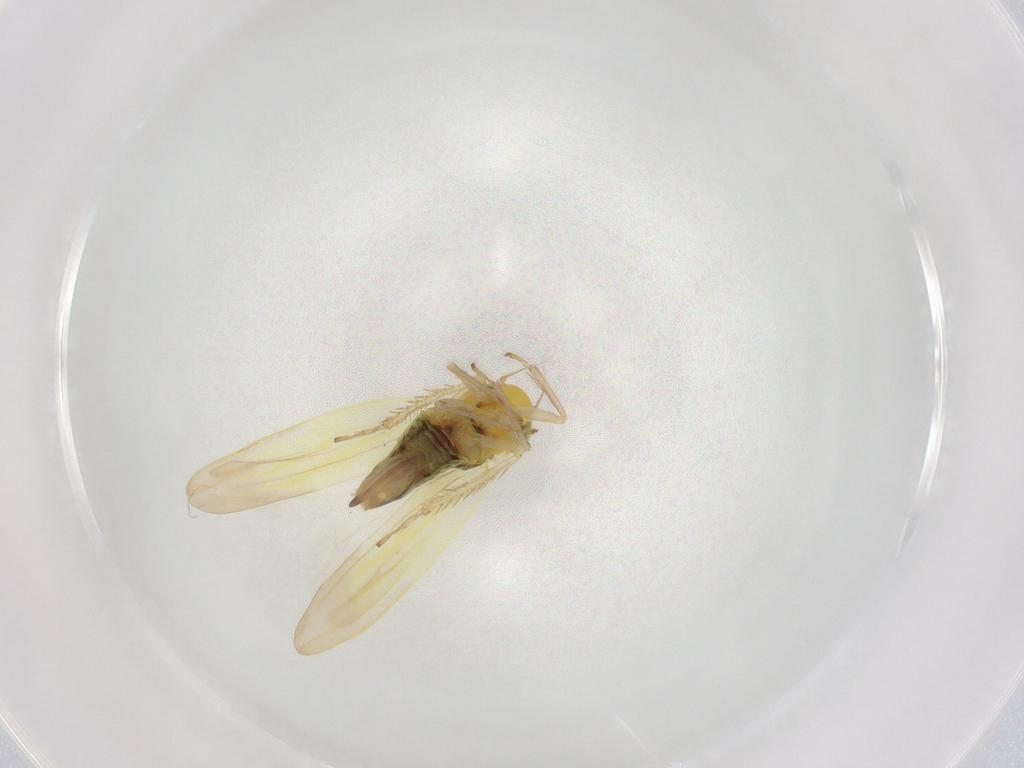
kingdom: Animalia
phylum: Arthropoda
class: Insecta
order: Hemiptera
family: Cicadellidae
